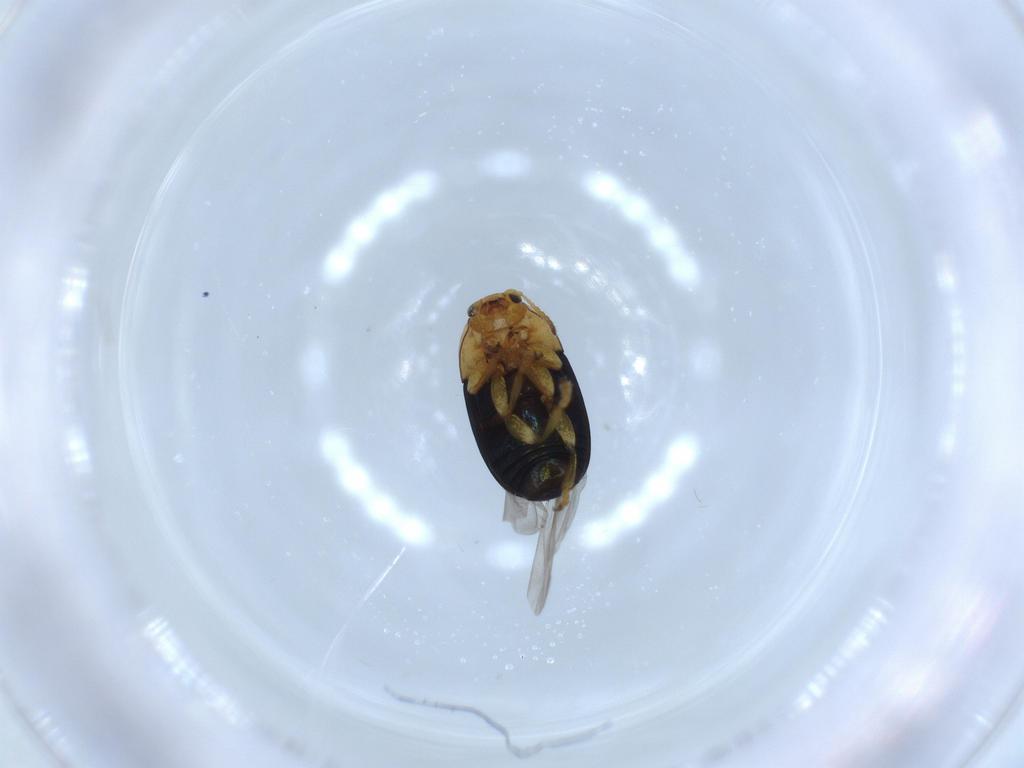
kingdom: Animalia
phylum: Arthropoda
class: Insecta
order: Coleoptera
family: Chrysomelidae
